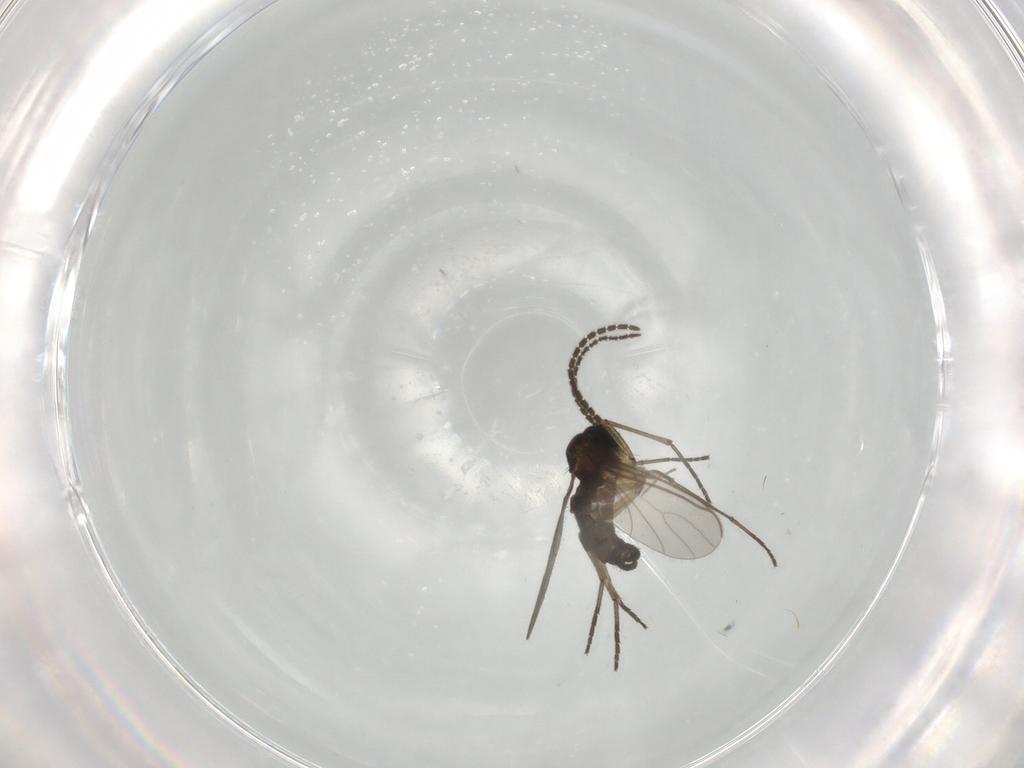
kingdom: Animalia
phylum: Arthropoda
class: Insecta
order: Diptera
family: Sciaridae
